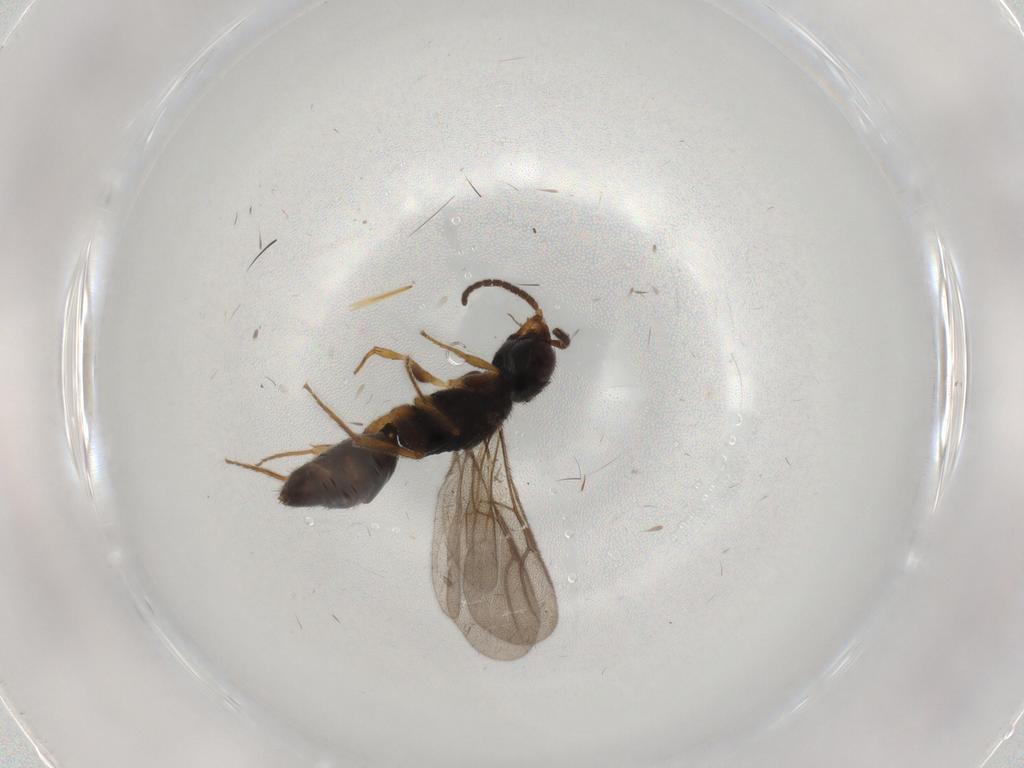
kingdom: Animalia
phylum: Arthropoda
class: Insecta
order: Hymenoptera
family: Bethylidae
